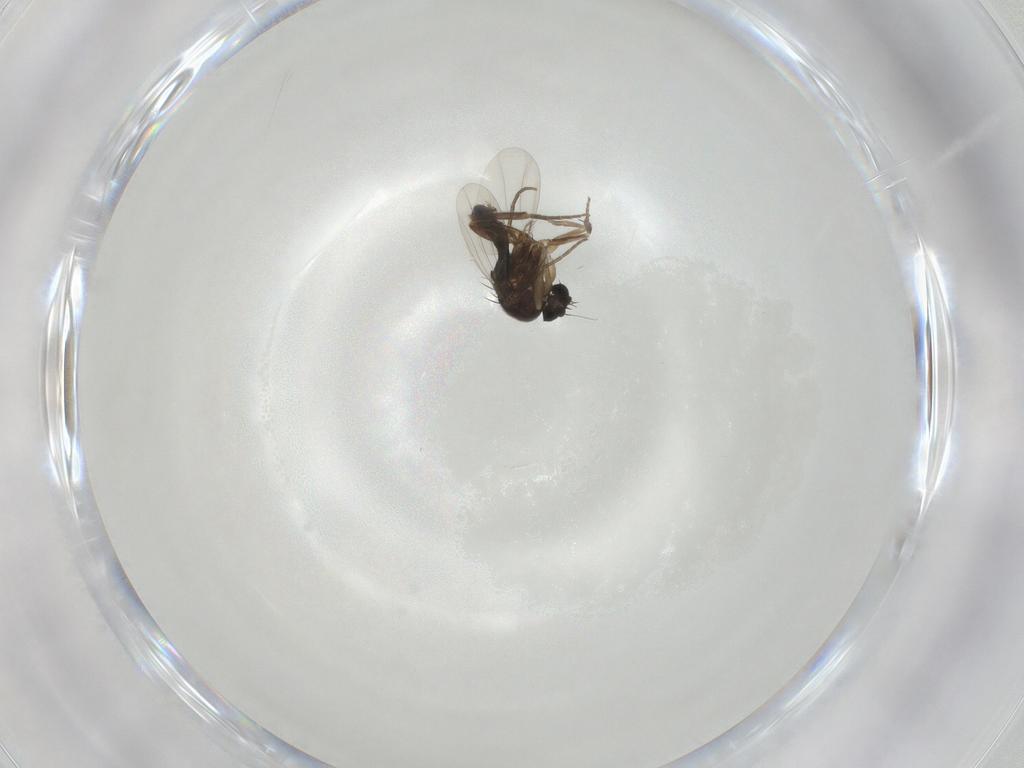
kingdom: Animalia
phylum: Arthropoda
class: Insecta
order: Diptera
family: Phoridae
